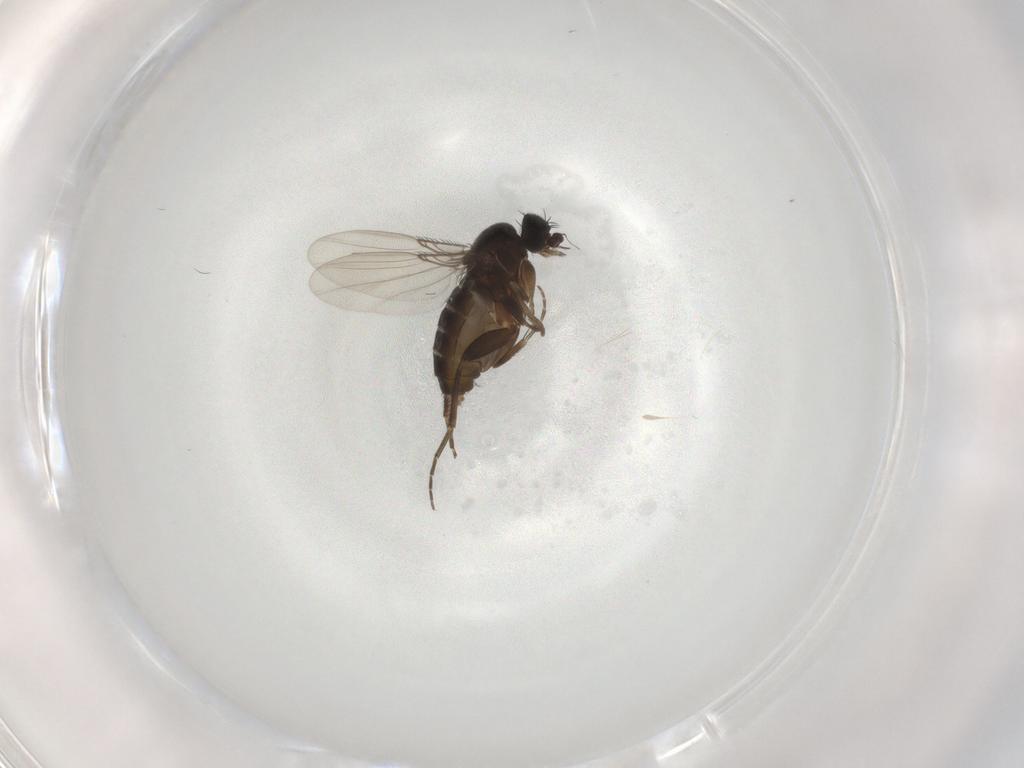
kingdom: Animalia
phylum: Arthropoda
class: Insecta
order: Diptera
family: Phoridae
